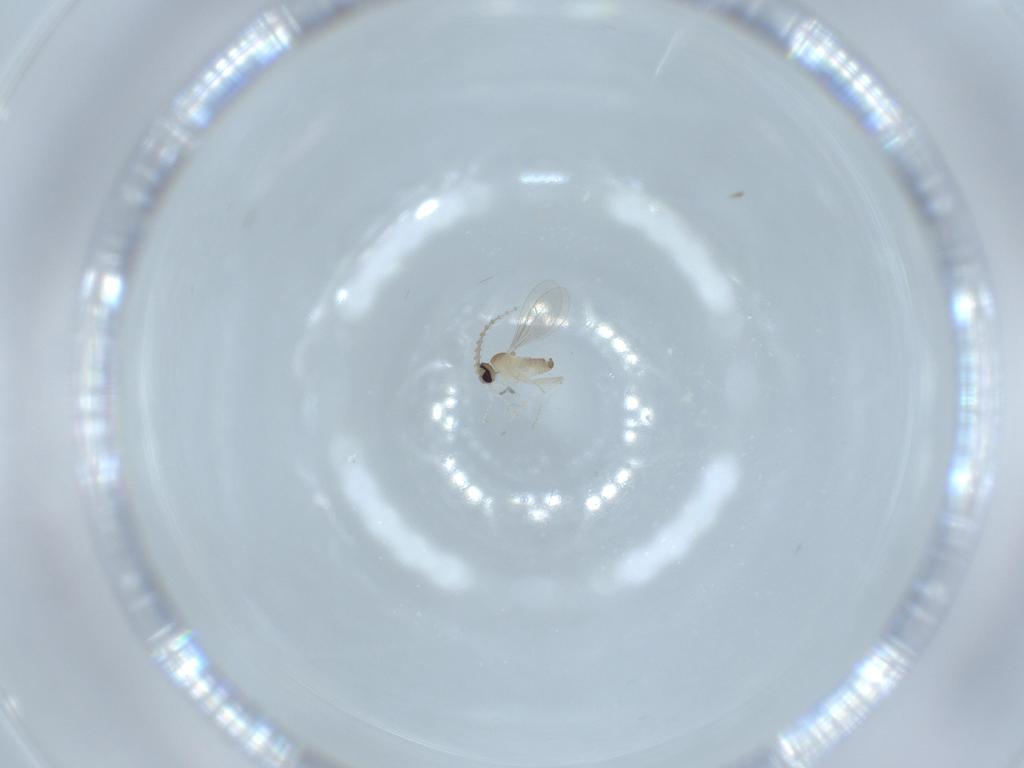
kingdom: Animalia
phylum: Arthropoda
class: Insecta
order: Diptera
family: Cecidomyiidae
